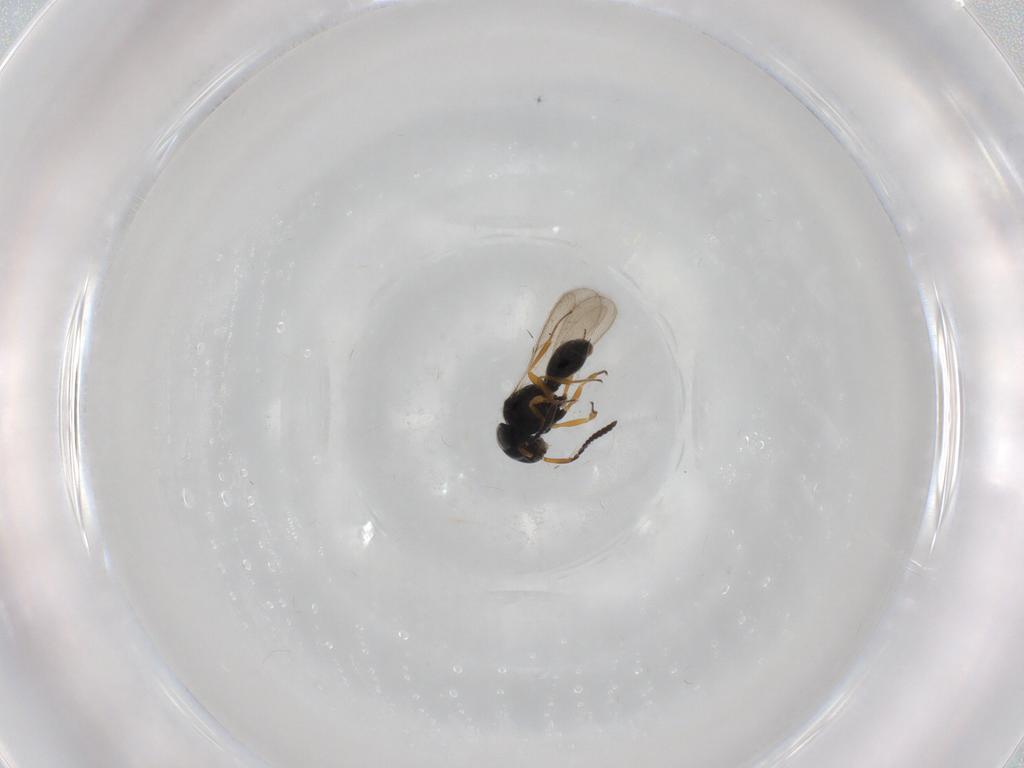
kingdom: Animalia
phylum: Arthropoda
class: Insecta
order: Hymenoptera
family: Scelionidae
